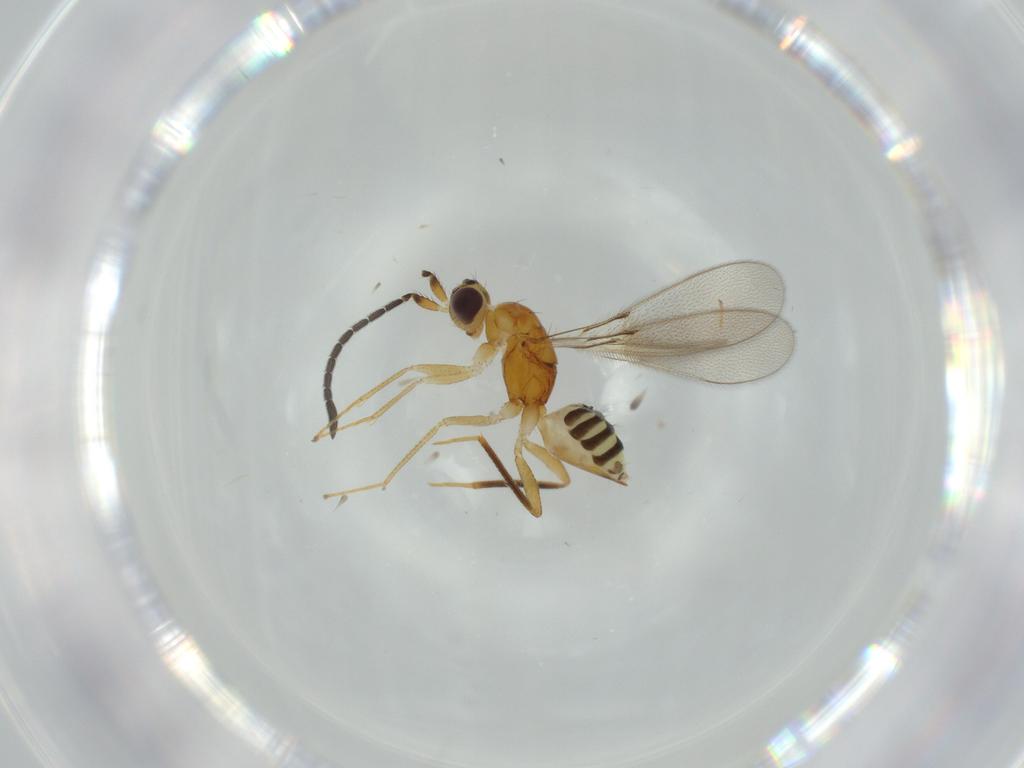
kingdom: Animalia
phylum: Arthropoda
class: Insecta
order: Hymenoptera
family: Mymaridae
